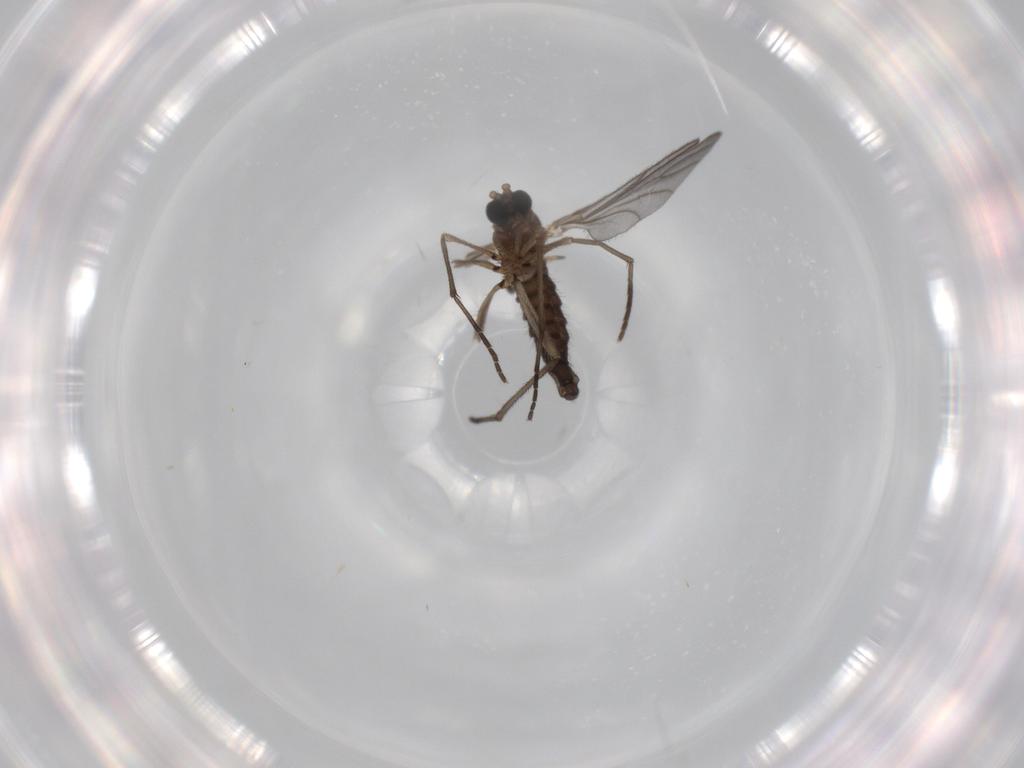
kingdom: Animalia
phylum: Arthropoda
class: Insecta
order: Diptera
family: Sciaridae
